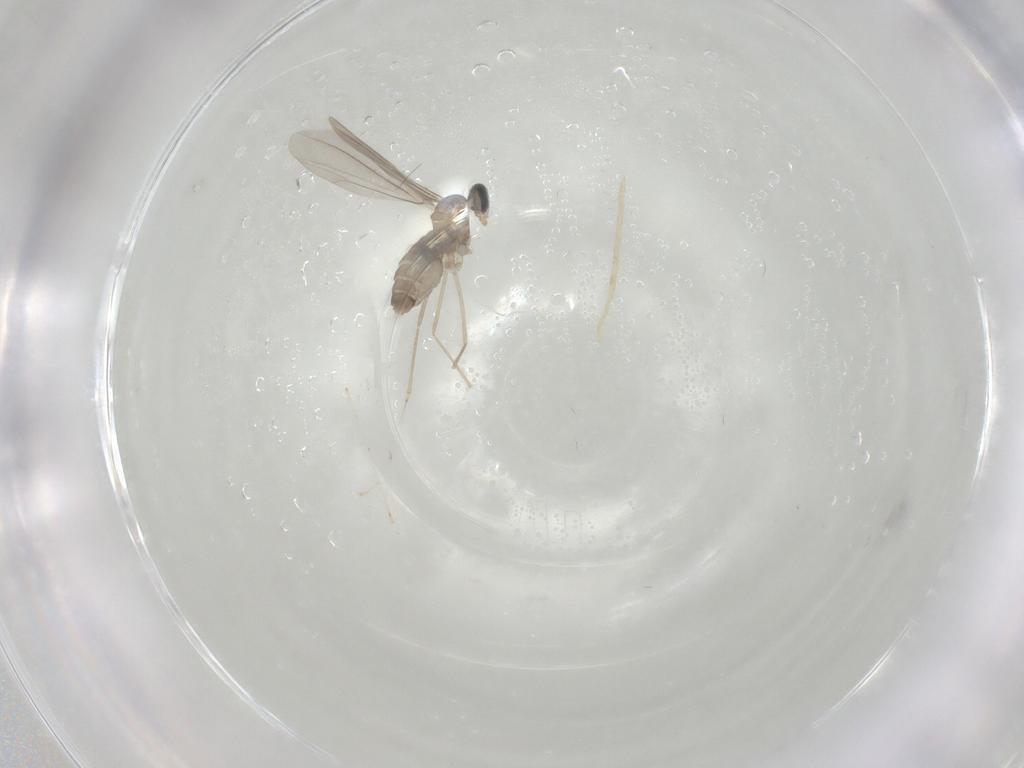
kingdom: Animalia
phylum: Arthropoda
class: Insecta
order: Diptera
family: Cecidomyiidae
